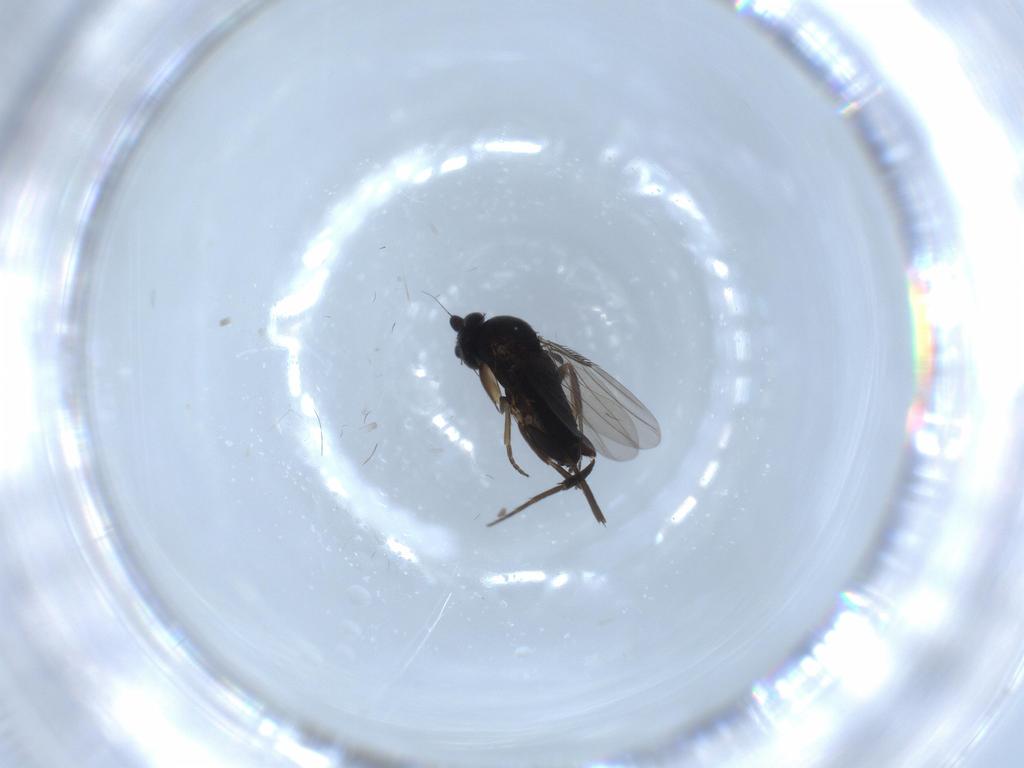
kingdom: Animalia
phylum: Arthropoda
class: Insecta
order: Diptera
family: Pipunculidae
